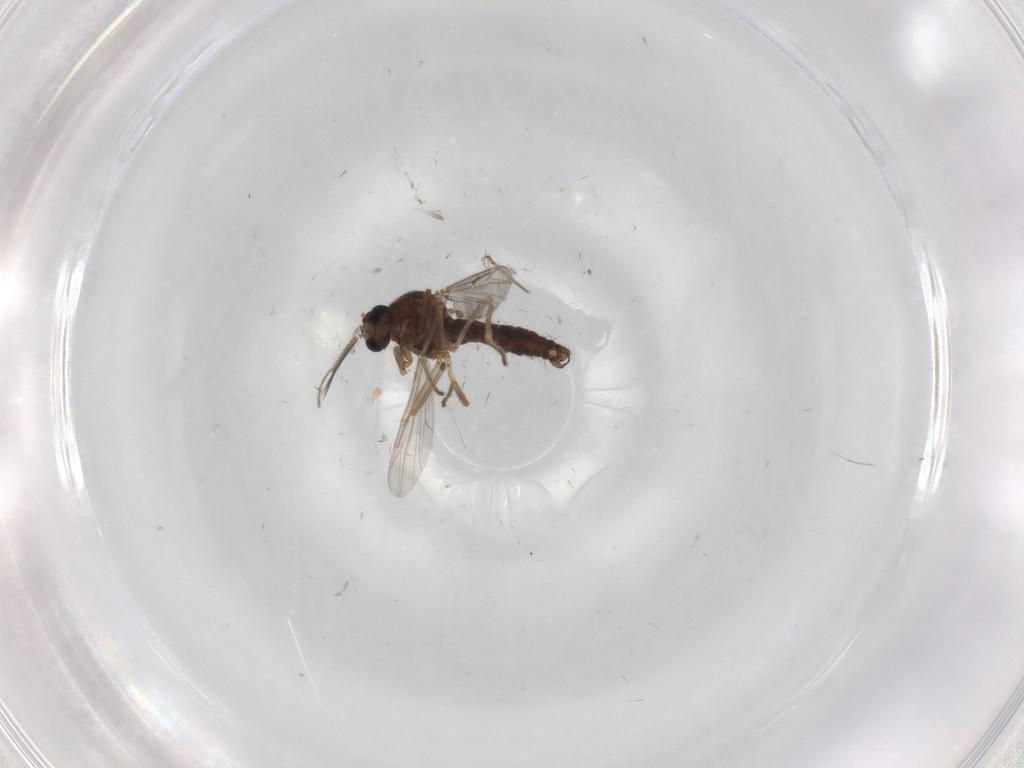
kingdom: Animalia
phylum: Arthropoda
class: Insecta
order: Diptera
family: Ceratopogonidae
